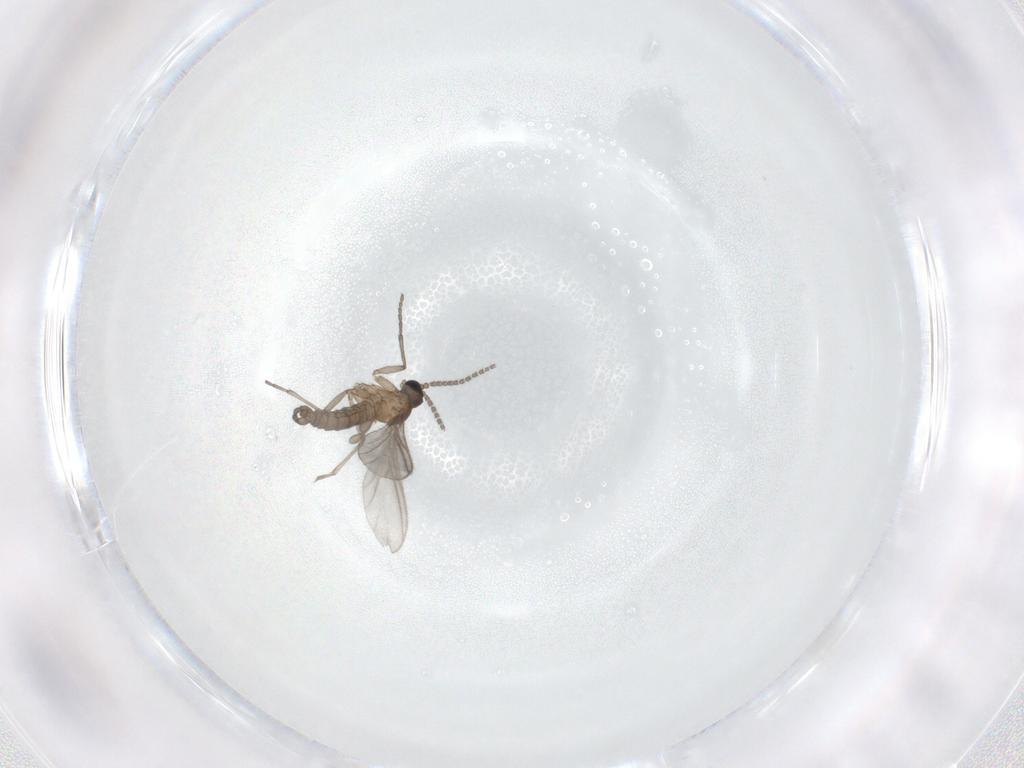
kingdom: Animalia
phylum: Arthropoda
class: Insecta
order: Diptera
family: Sciaridae
